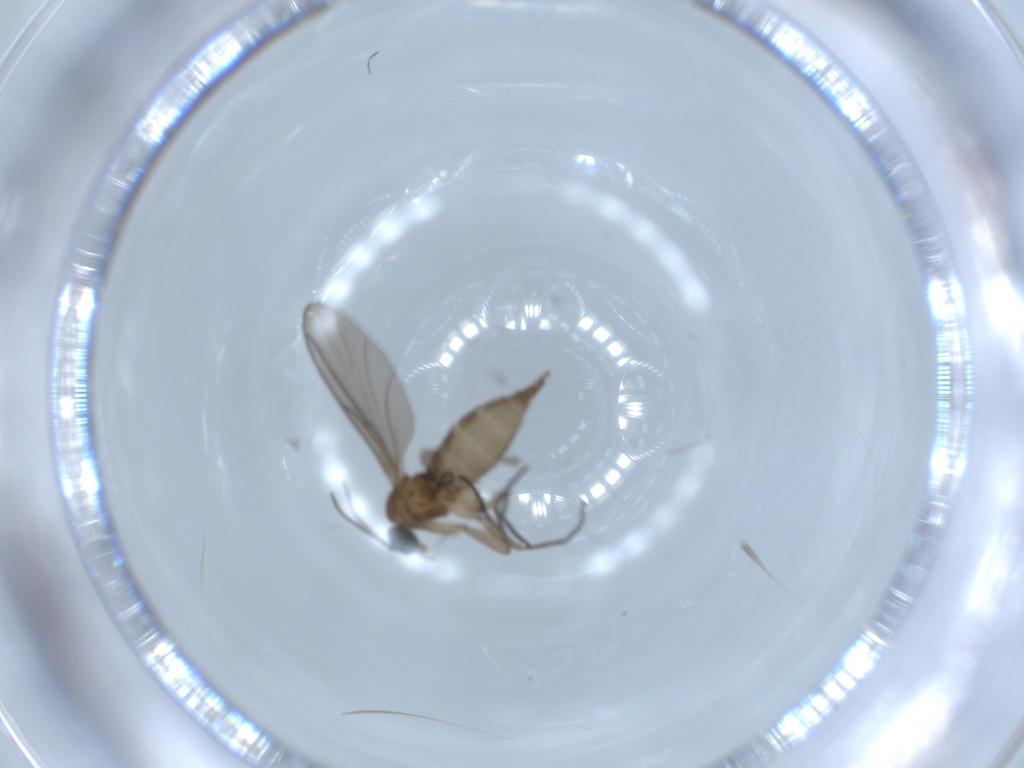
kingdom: Animalia
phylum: Arthropoda
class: Insecta
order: Diptera
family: Sciaridae
